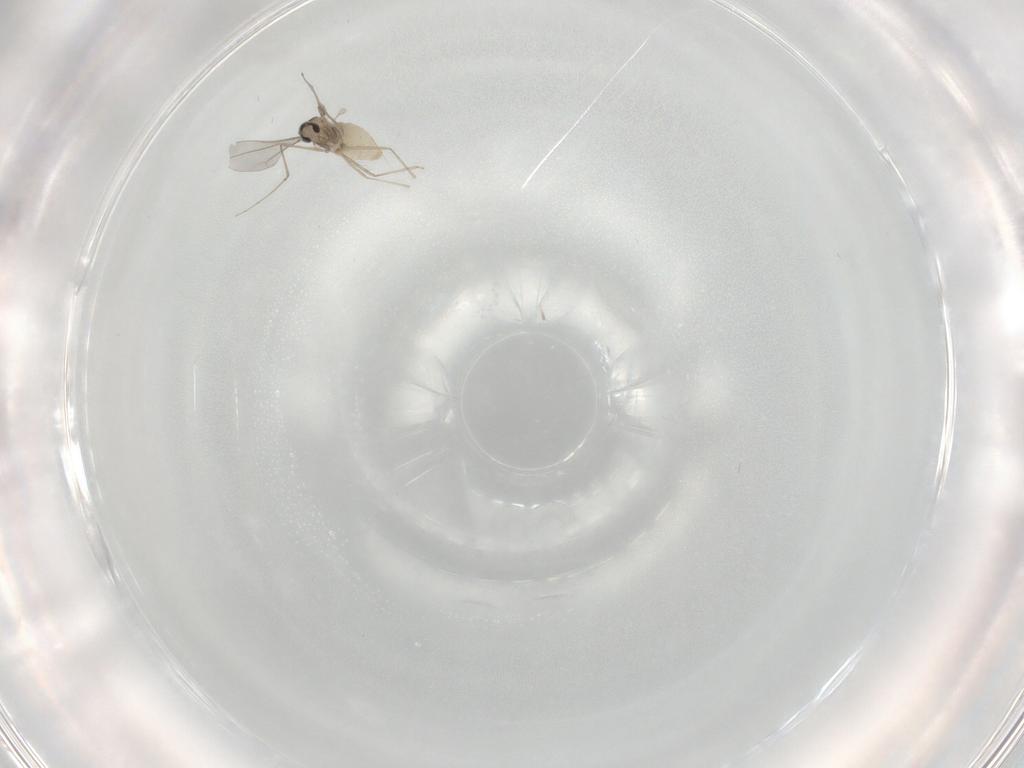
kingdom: Animalia
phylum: Arthropoda
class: Insecta
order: Diptera
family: Cecidomyiidae
